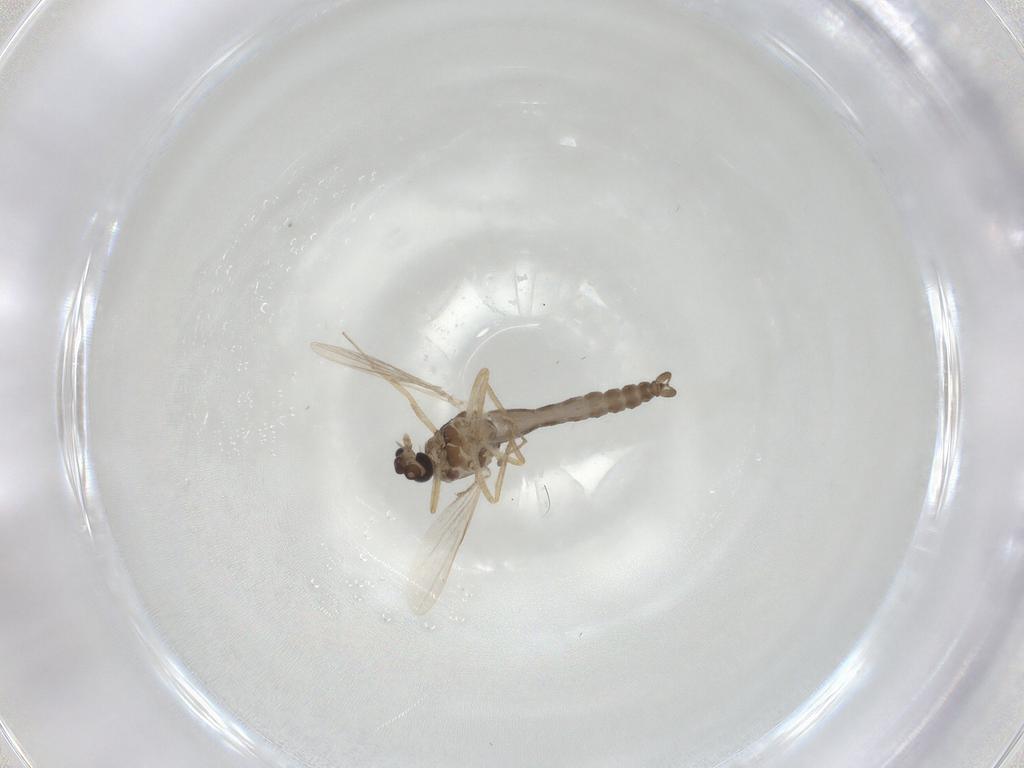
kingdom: Animalia
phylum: Arthropoda
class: Insecta
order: Diptera
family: Ceratopogonidae
